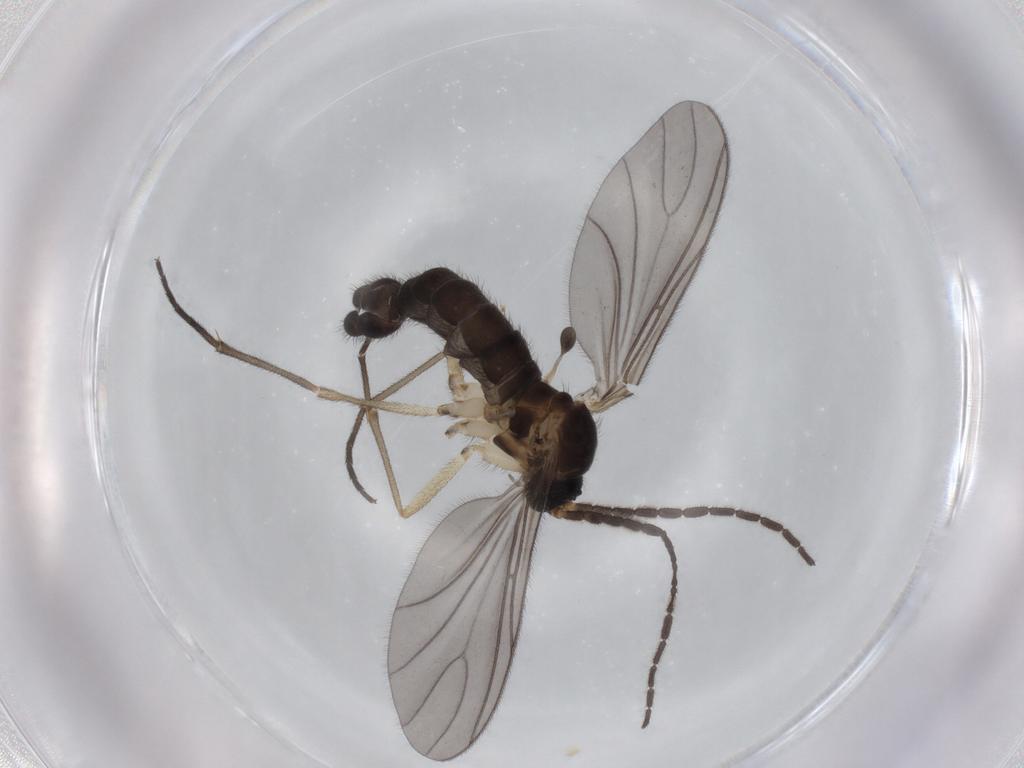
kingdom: Animalia
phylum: Arthropoda
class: Insecta
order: Diptera
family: Sciaridae
